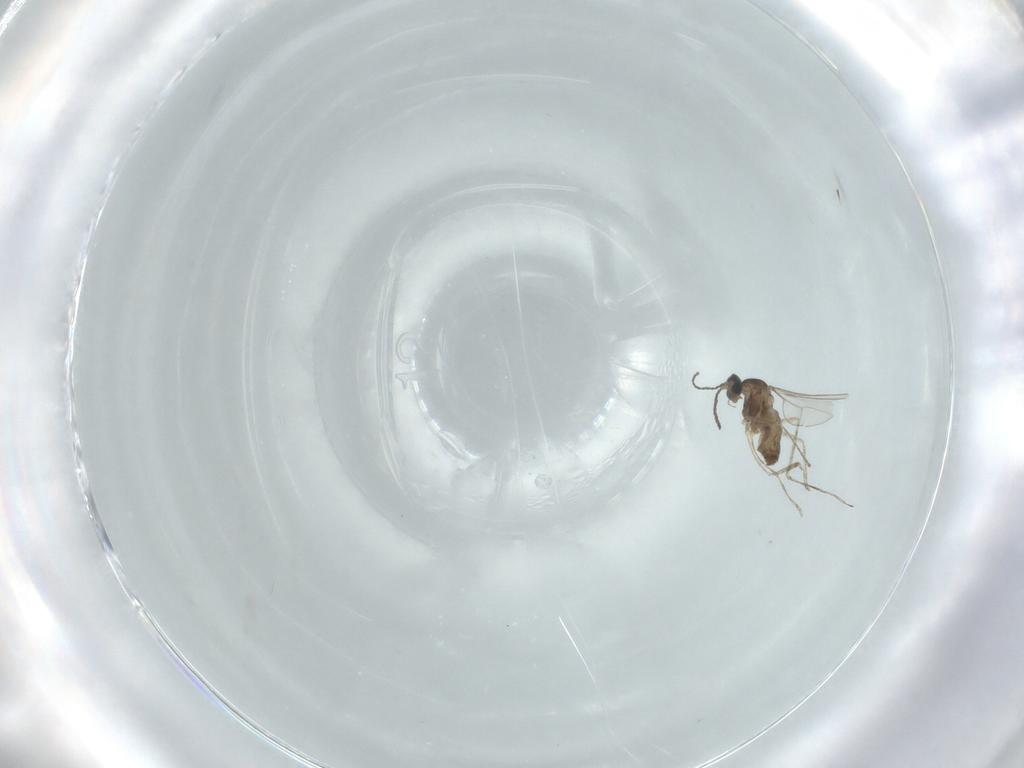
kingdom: Animalia
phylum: Arthropoda
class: Insecta
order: Diptera
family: Cecidomyiidae
